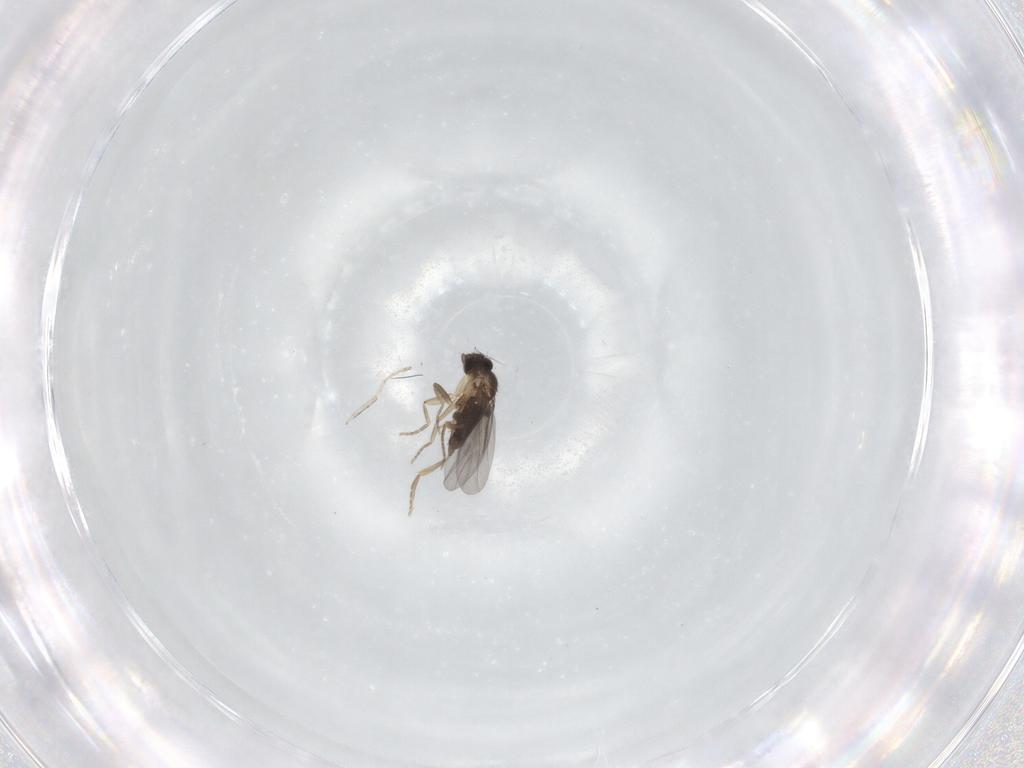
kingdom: Animalia
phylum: Arthropoda
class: Insecta
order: Diptera
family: Cecidomyiidae
